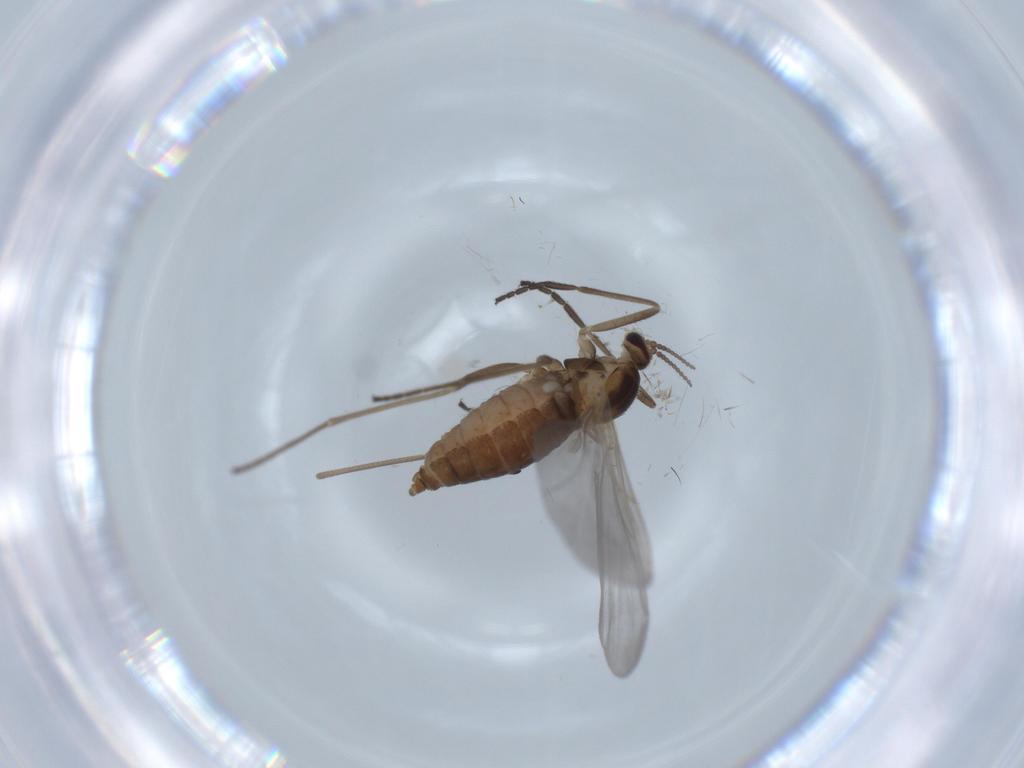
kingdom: Animalia
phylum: Arthropoda
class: Insecta
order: Diptera
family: Cecidomyiidae
